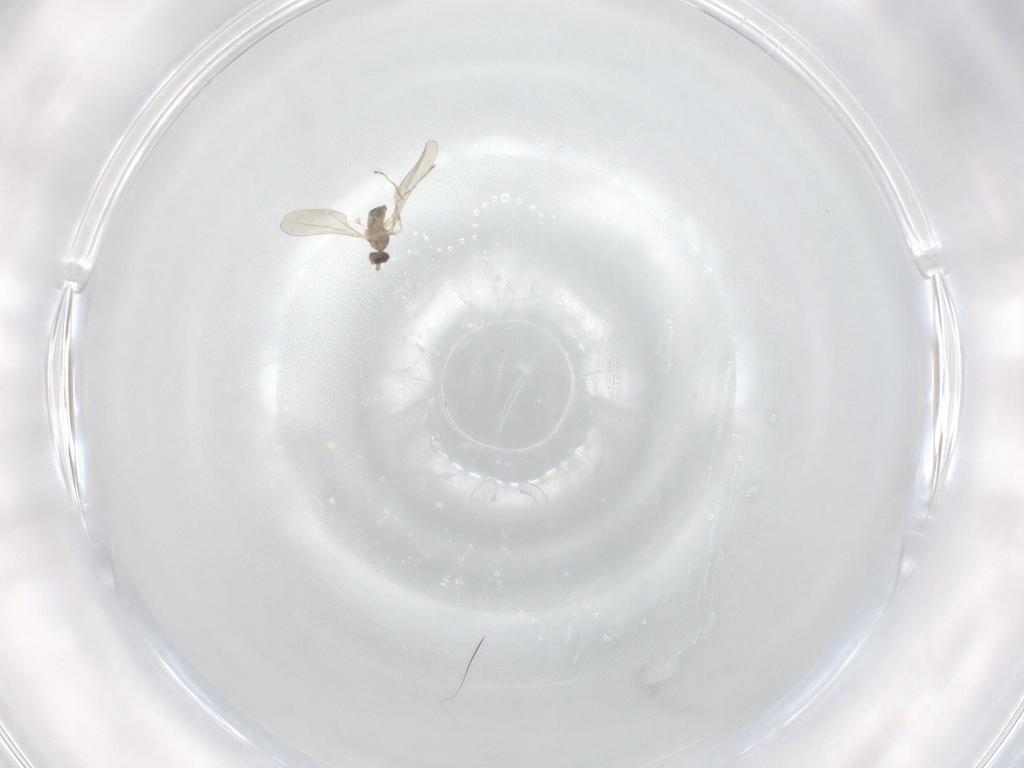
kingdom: Animalia
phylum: Arthropoda
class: Insecta
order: Diptera
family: Cecidomyiidae
